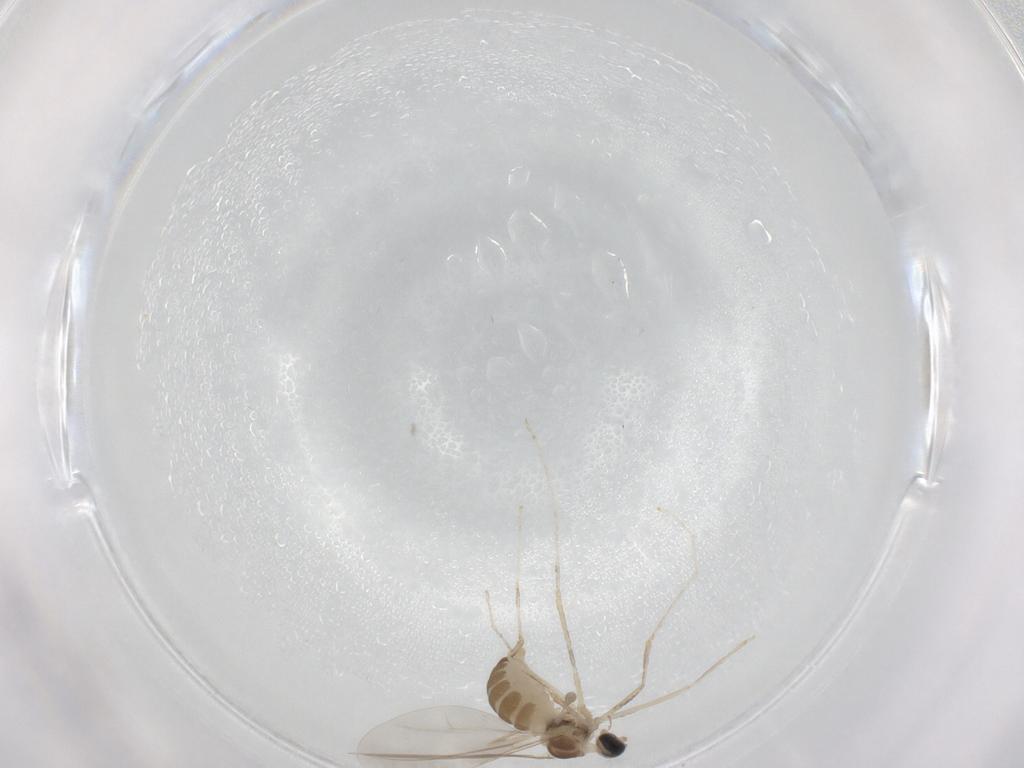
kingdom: Animalia
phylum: Arthropoda
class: Insecta
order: Diptera
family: Cecidomyiidae
